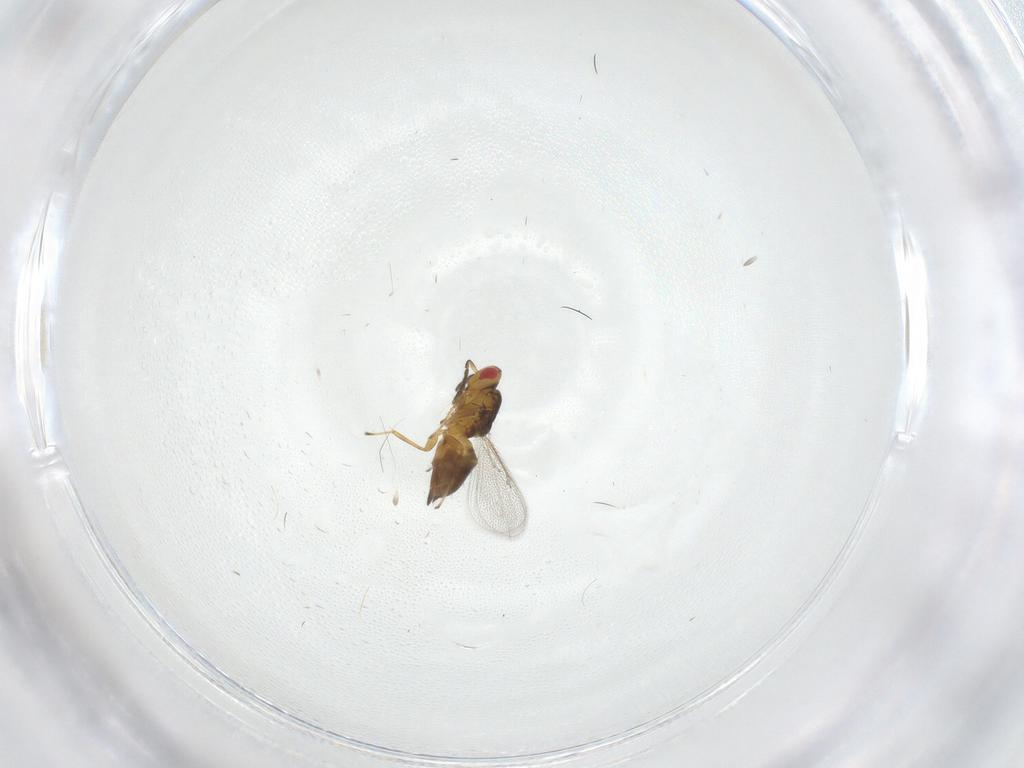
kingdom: Animalia
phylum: Arthropoda
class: Insecta
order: Hymenoptera
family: Eulophidae
